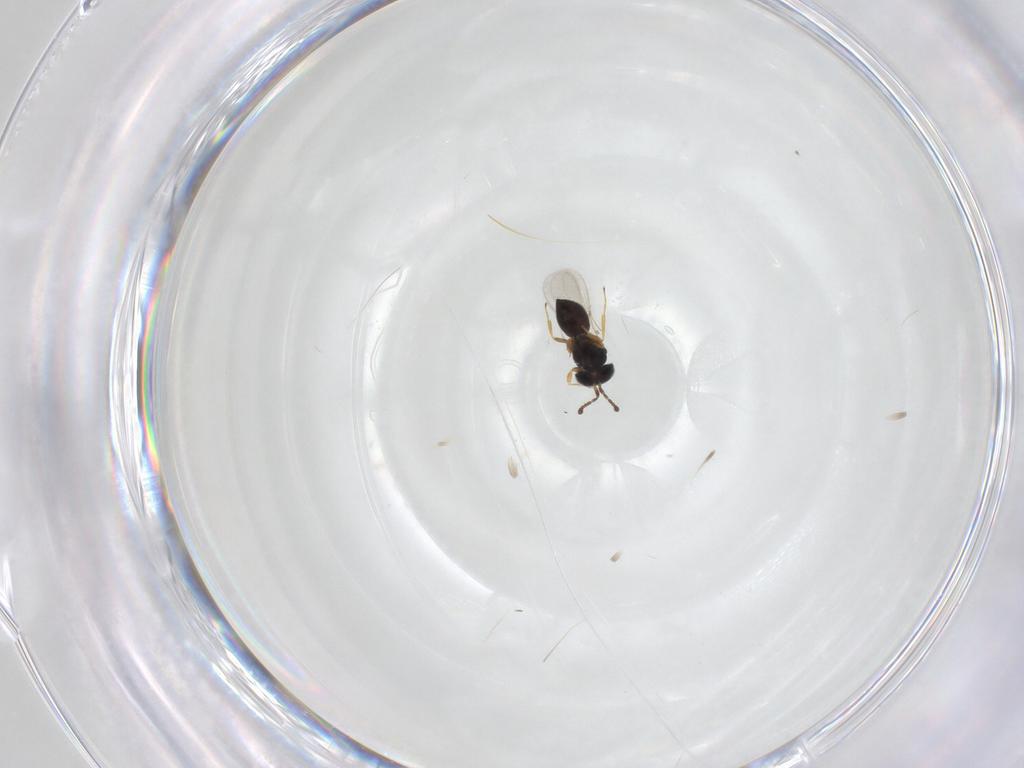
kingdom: Animalia
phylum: Arthropoda
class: Insecta
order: Hymenoptera
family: Scelionidae
